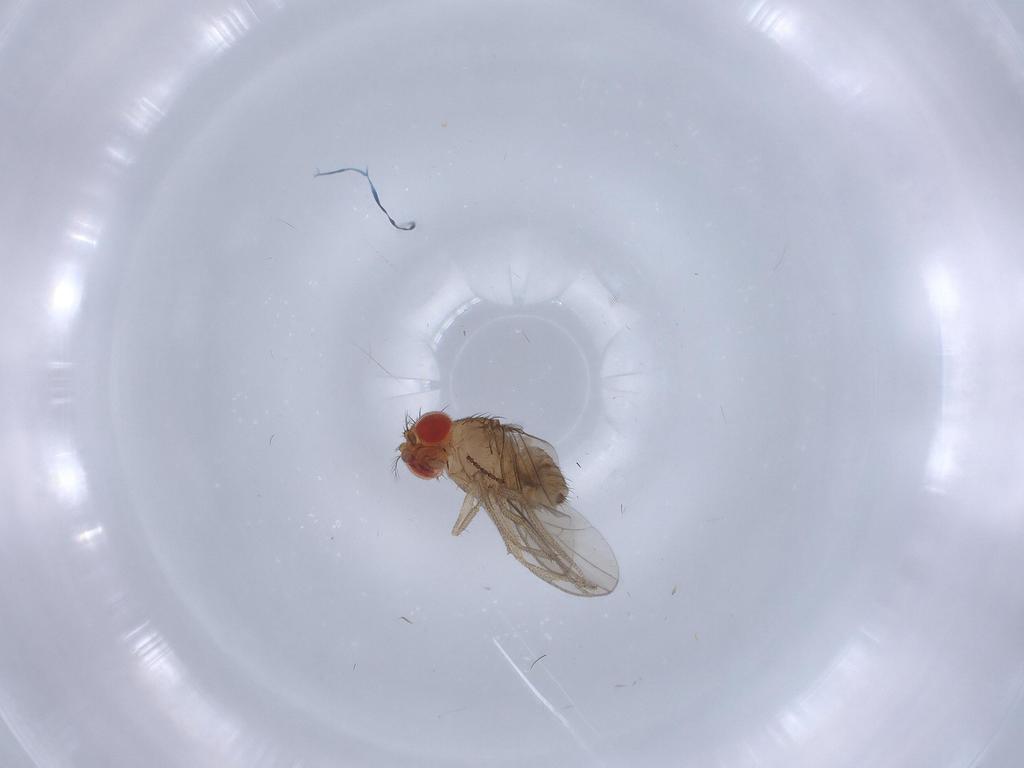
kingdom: Animalia
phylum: Arthropoda
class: Insecta
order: Diptera
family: Drosophilidae
